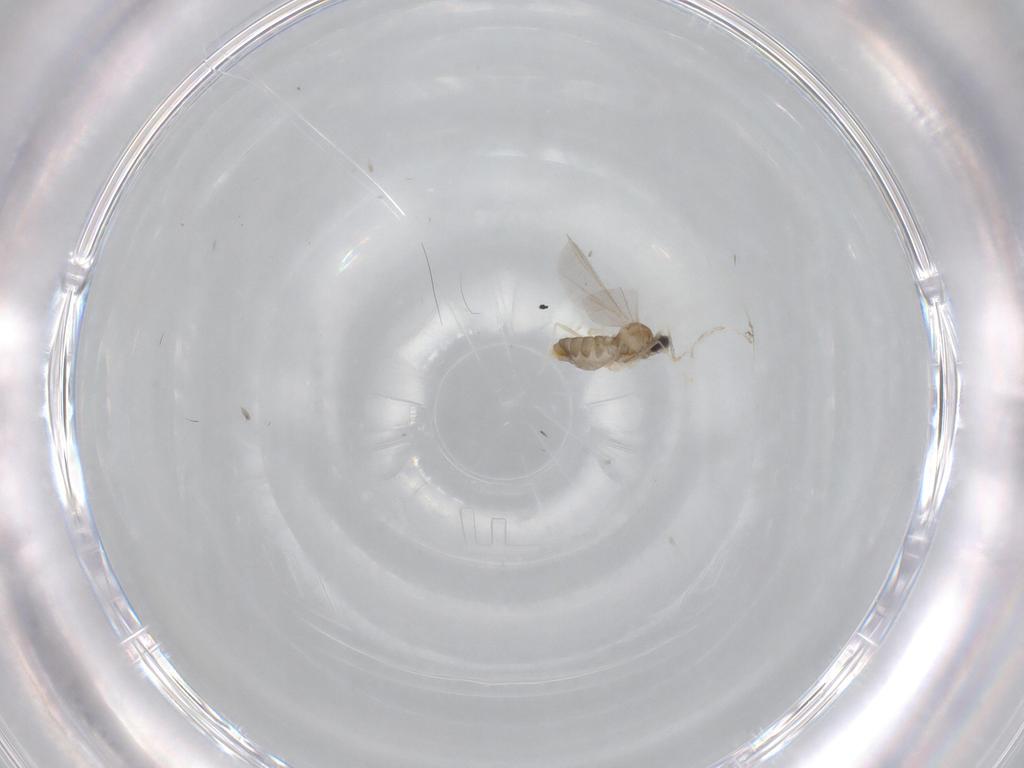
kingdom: Animalia
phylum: Arthropoda
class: Insecta
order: Diptera
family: Cecidomyiidae
